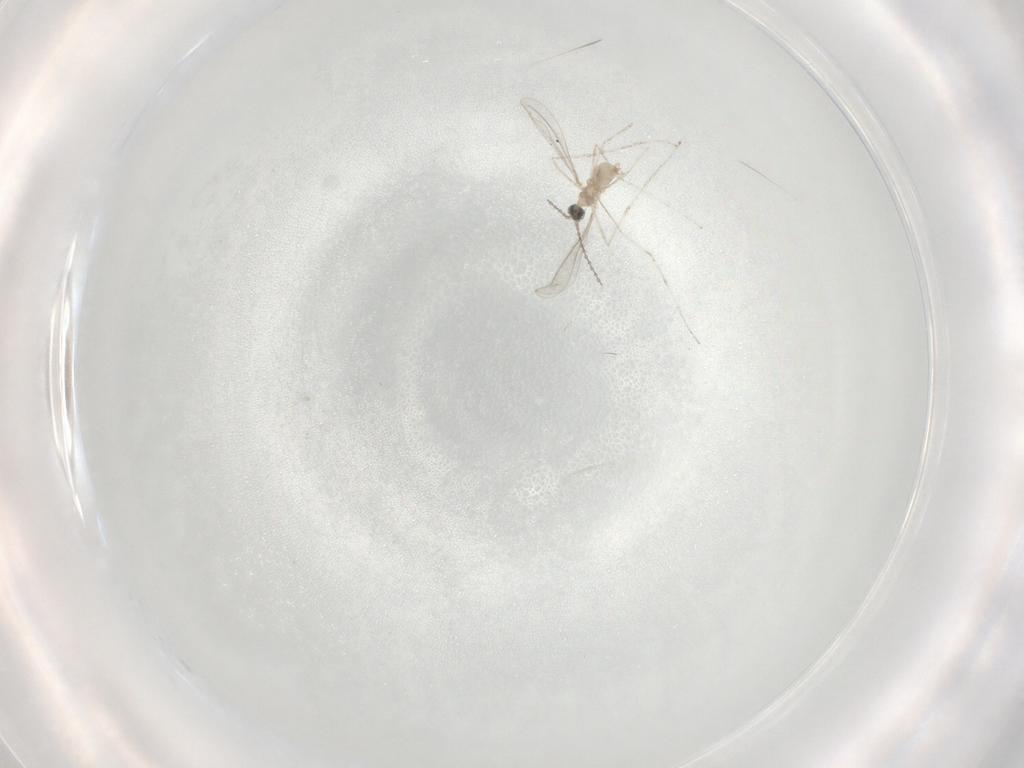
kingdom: Animalia
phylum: Arthropoda
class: Insecta
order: Diptera
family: Cecidomyiidae
